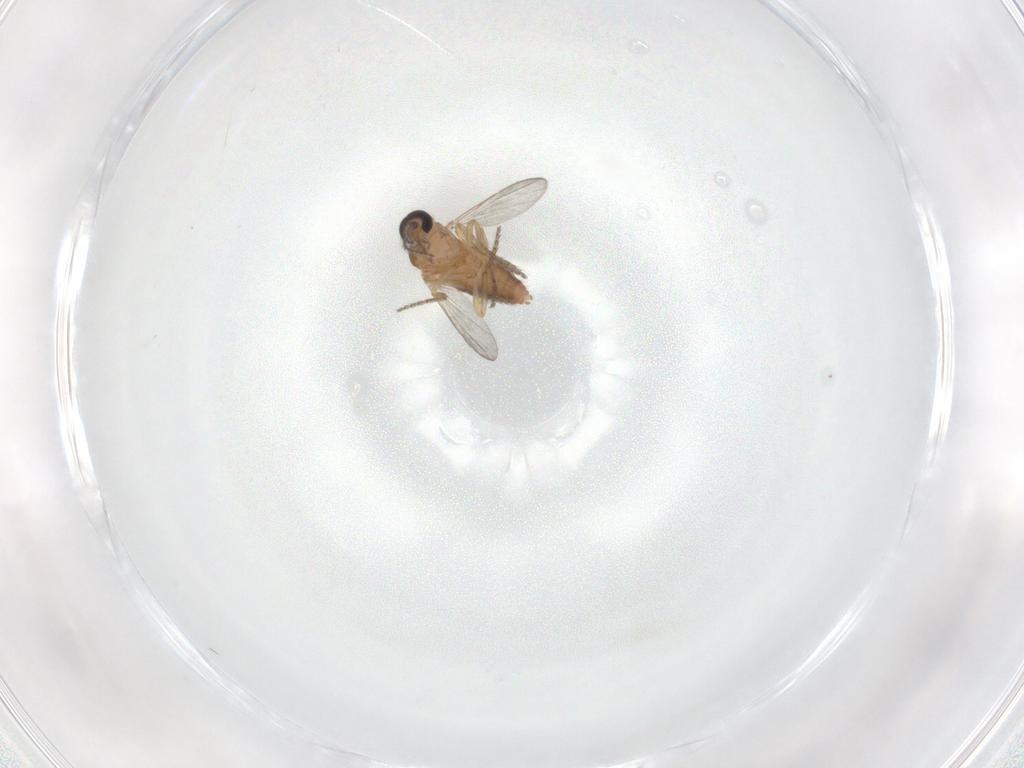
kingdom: Animalia
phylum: Arthropoda
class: Insecta
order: Diptera
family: Ceratopogonidae
